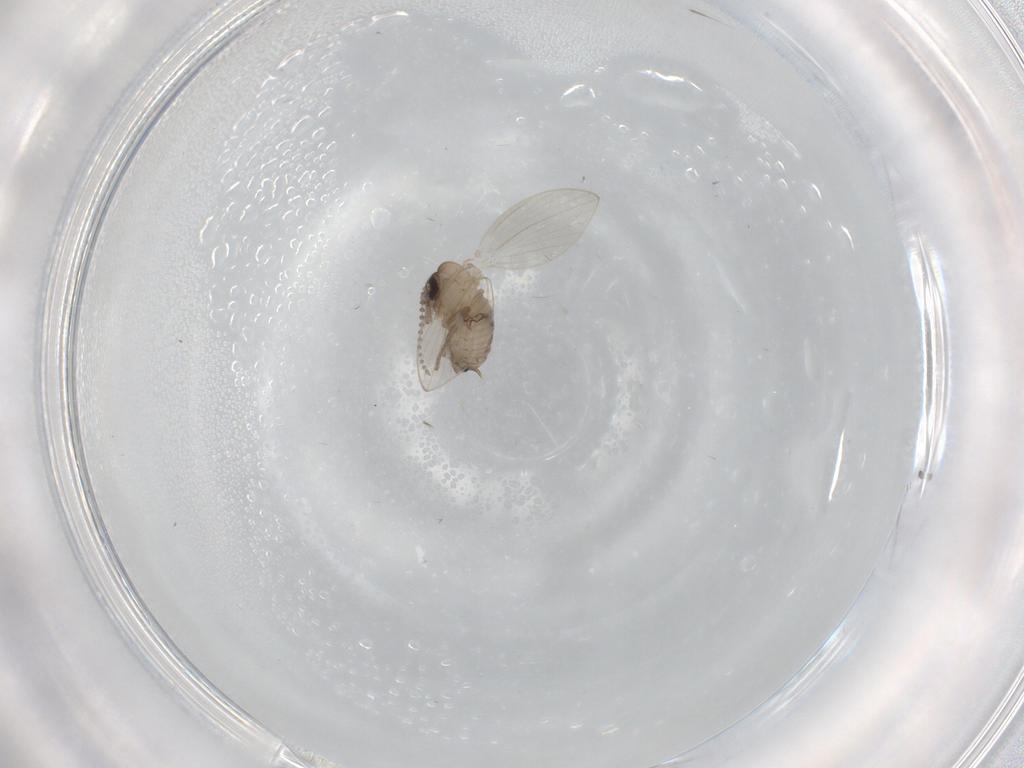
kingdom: Animalia
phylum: Arthropoda
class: Insecta
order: Diptera
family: Psychodidae
